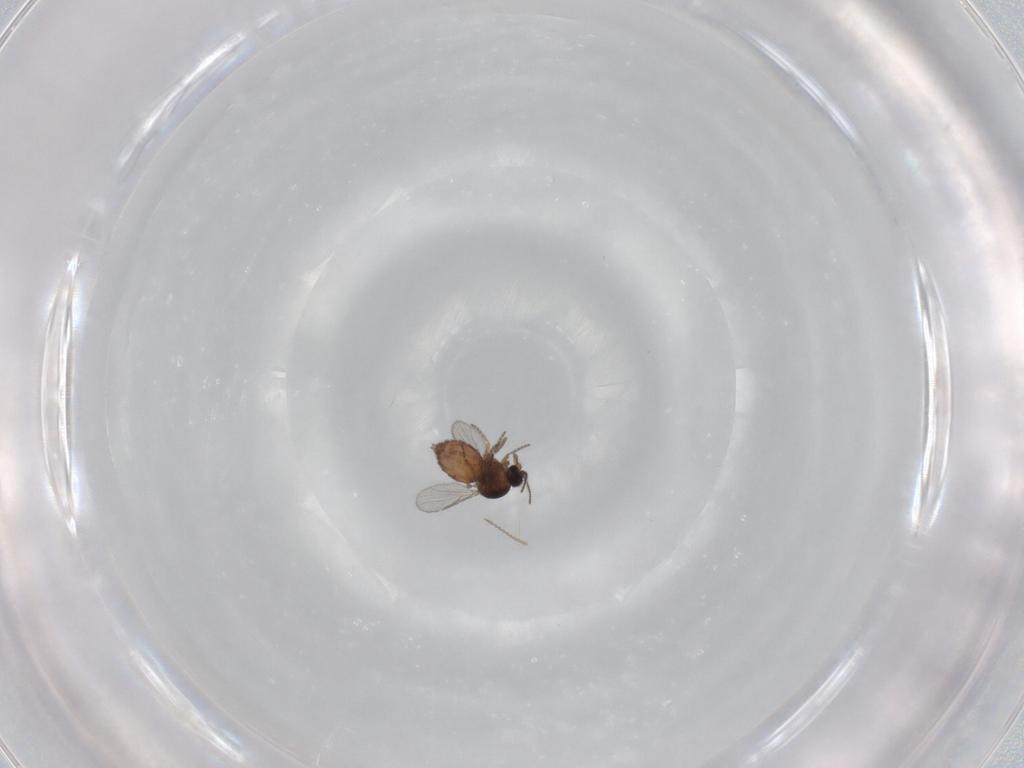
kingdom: Animalia
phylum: Arthropoda
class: Insecta
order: Diptera
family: Ceratopogonidae
